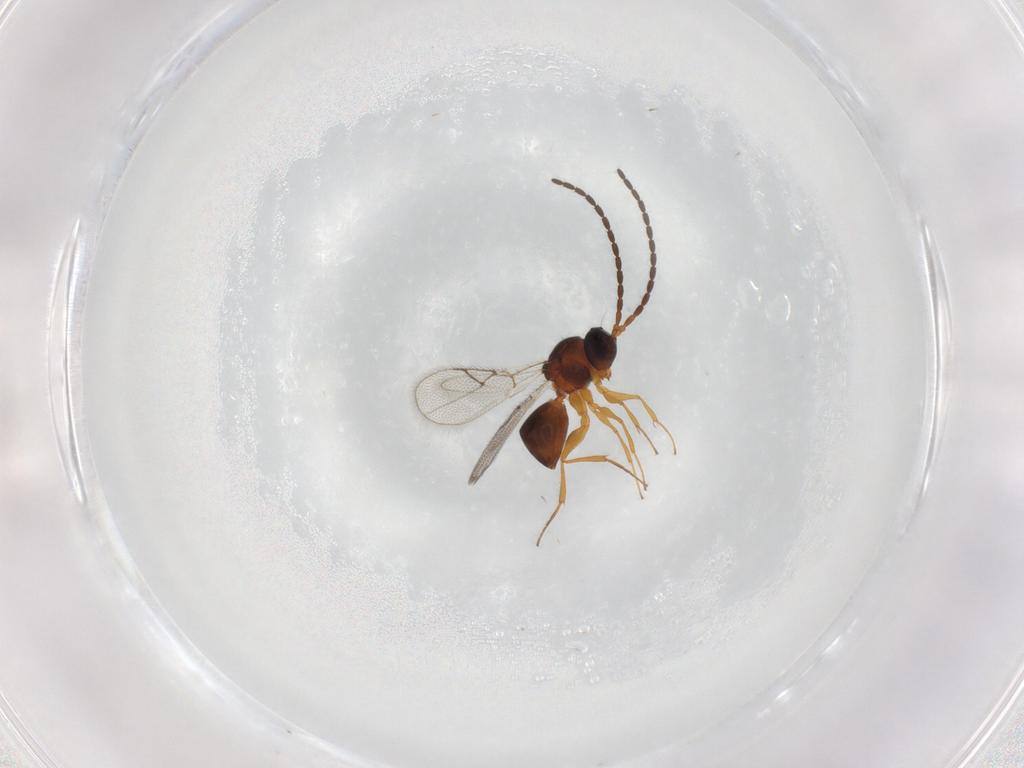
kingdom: Animalia
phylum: Arthropoda
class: Insecta
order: Hymenoptera
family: Figitidae
